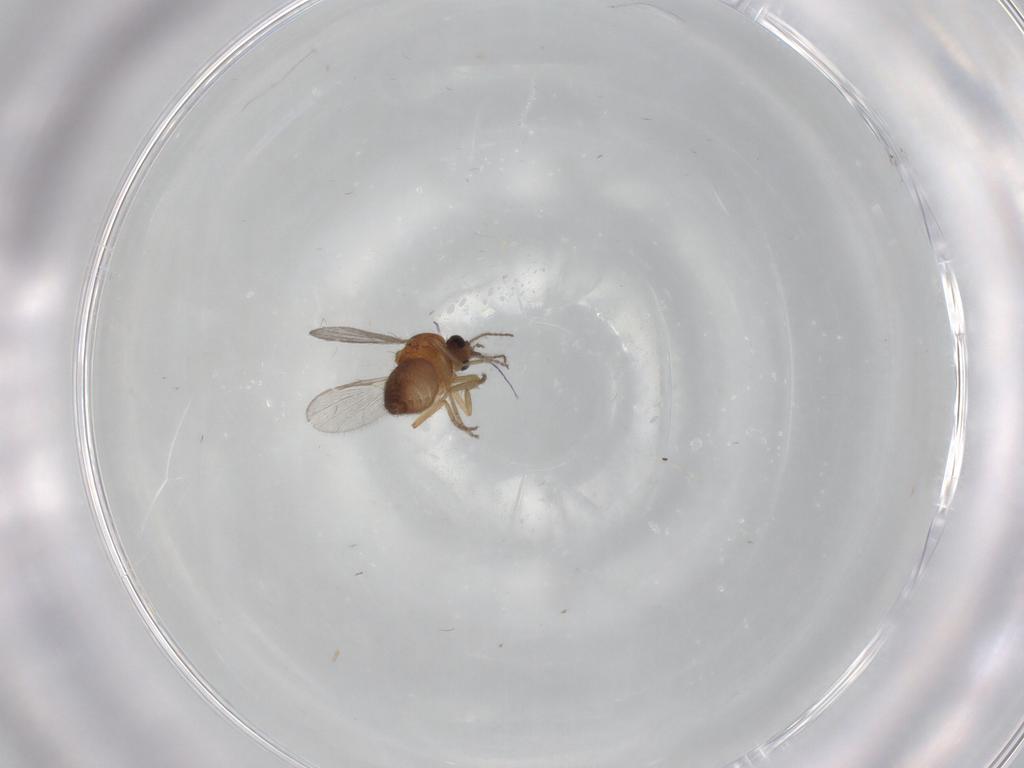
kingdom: Animalia
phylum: Arthropoda
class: Insecta
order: Diptera
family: Ceratopogonidae
